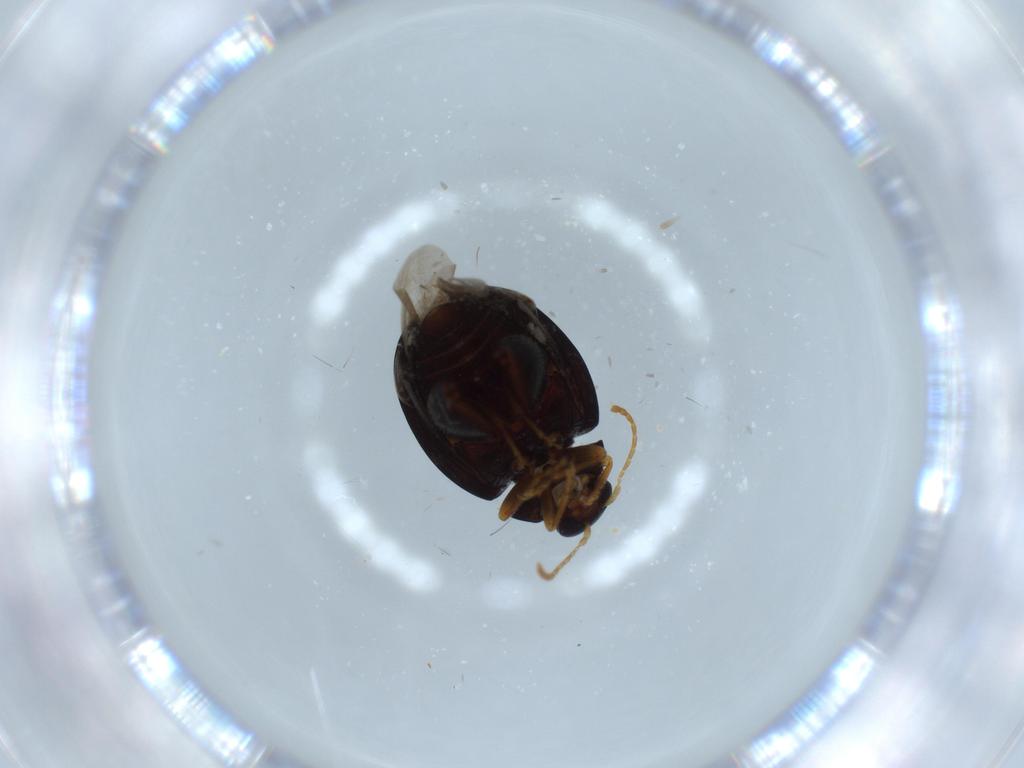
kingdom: Animalia
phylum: Arthropoda
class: Insecta
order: Coleoptera
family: Chrysomelidae
